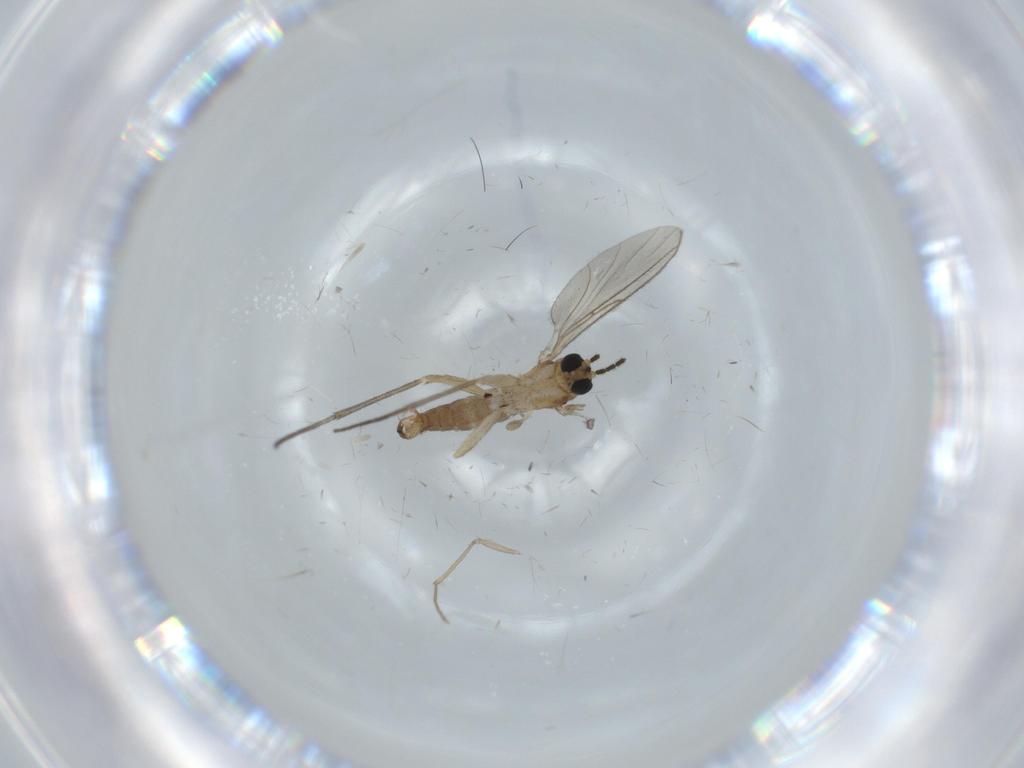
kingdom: Animalia
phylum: Arthropoda
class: Insecta
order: Diptera
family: Sciaridae
